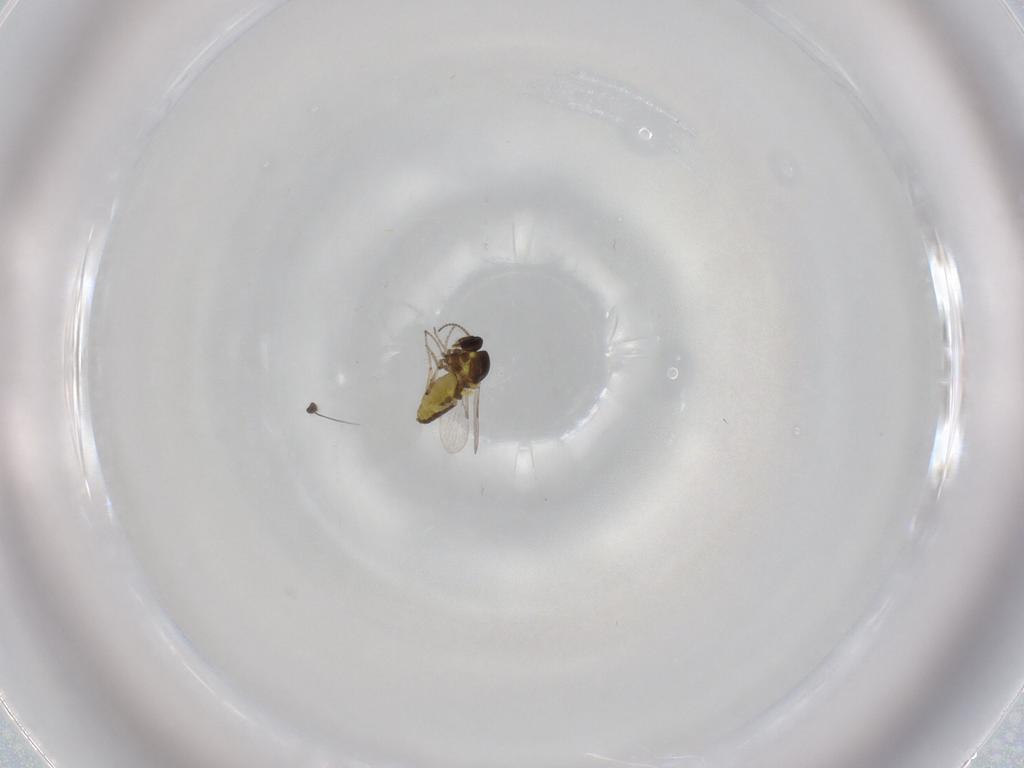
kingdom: Animalia
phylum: Arthropoda
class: Insecta
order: Diptera
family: Ceratopogonidae
